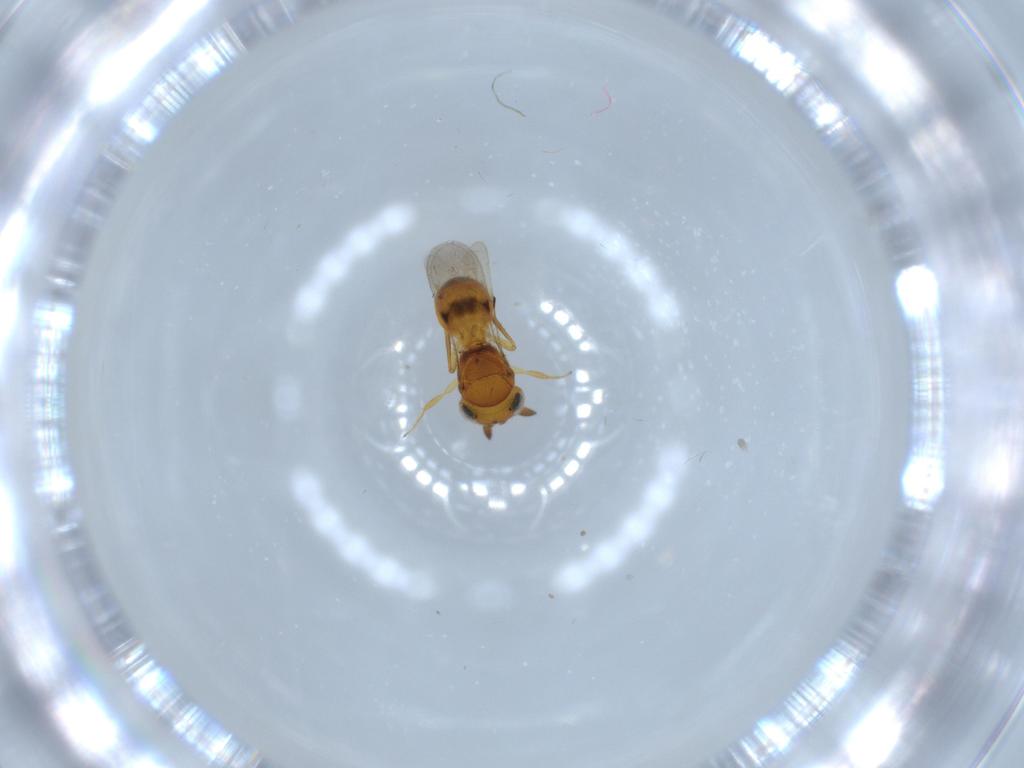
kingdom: Animalia
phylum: Arthropoda
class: Insecta
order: Hymenoptera
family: Scelionidae
